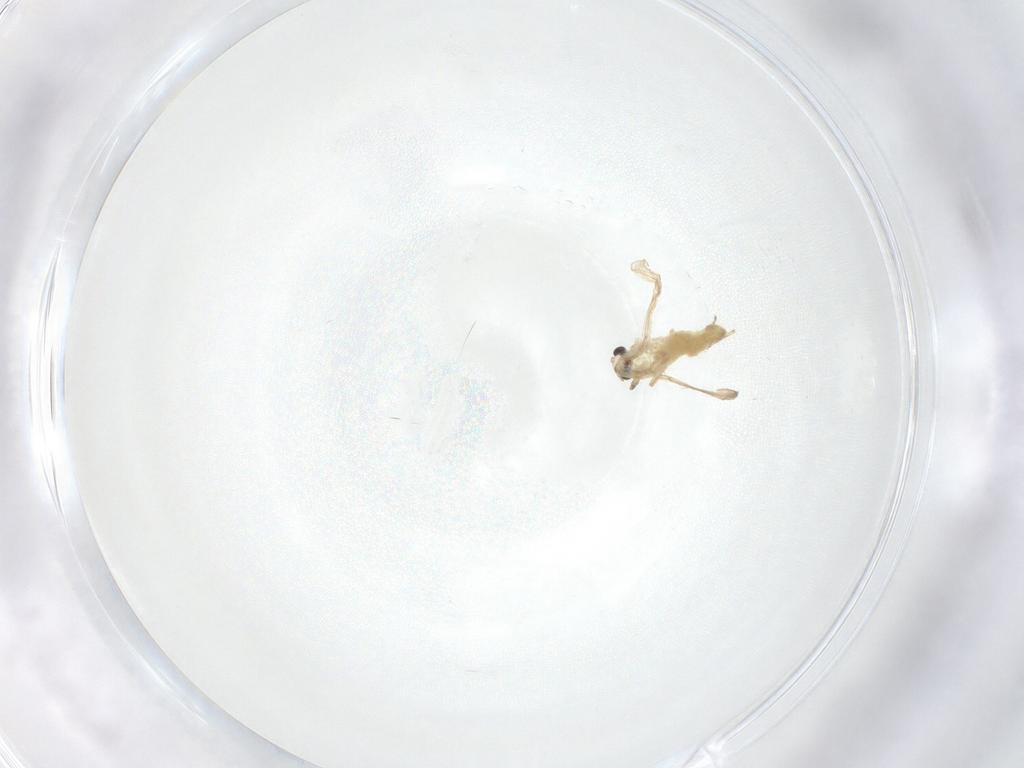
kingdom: Animalia
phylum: Arthropoda
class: Insecta
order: Diptera
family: Chironomidae
